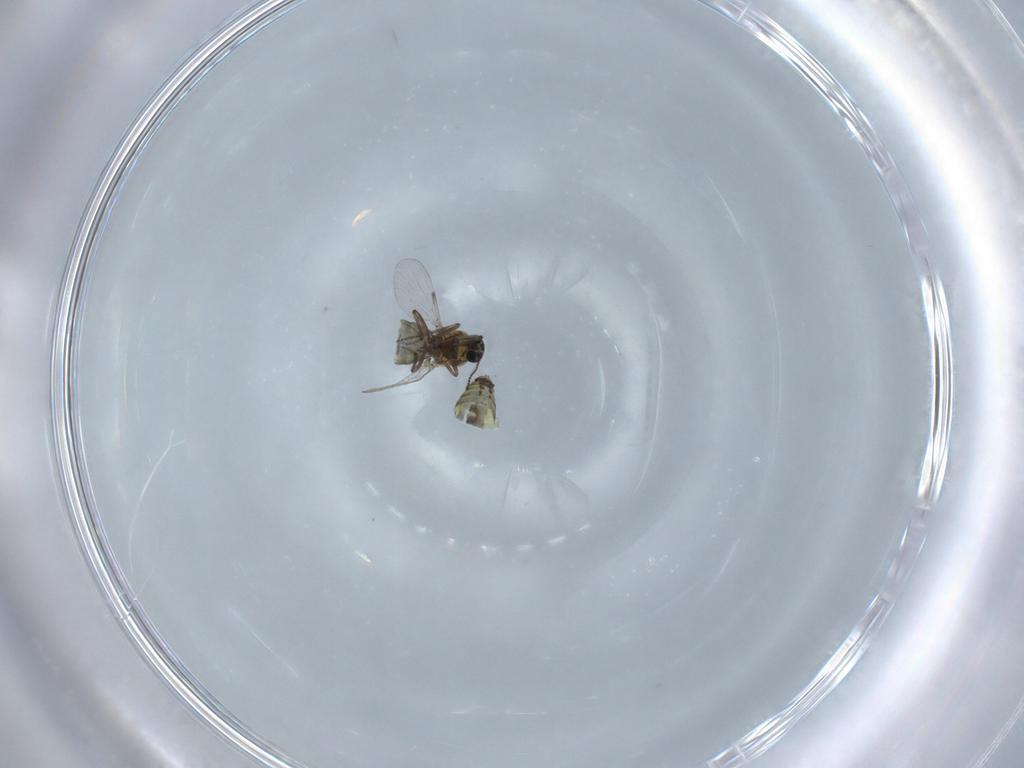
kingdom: Animalia
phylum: Arthropoda
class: Insecta
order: Diptera
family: Ceratopogonidae
